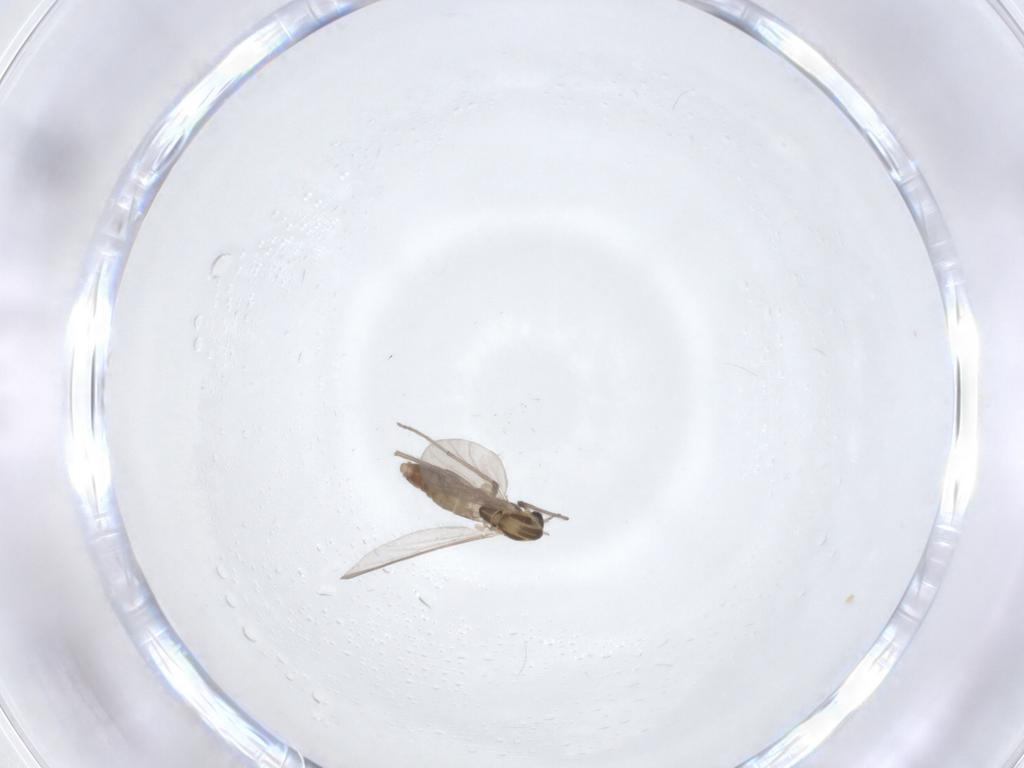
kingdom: Animalia
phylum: Arthropoda
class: Insecta
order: Diptera
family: Chironomidae
